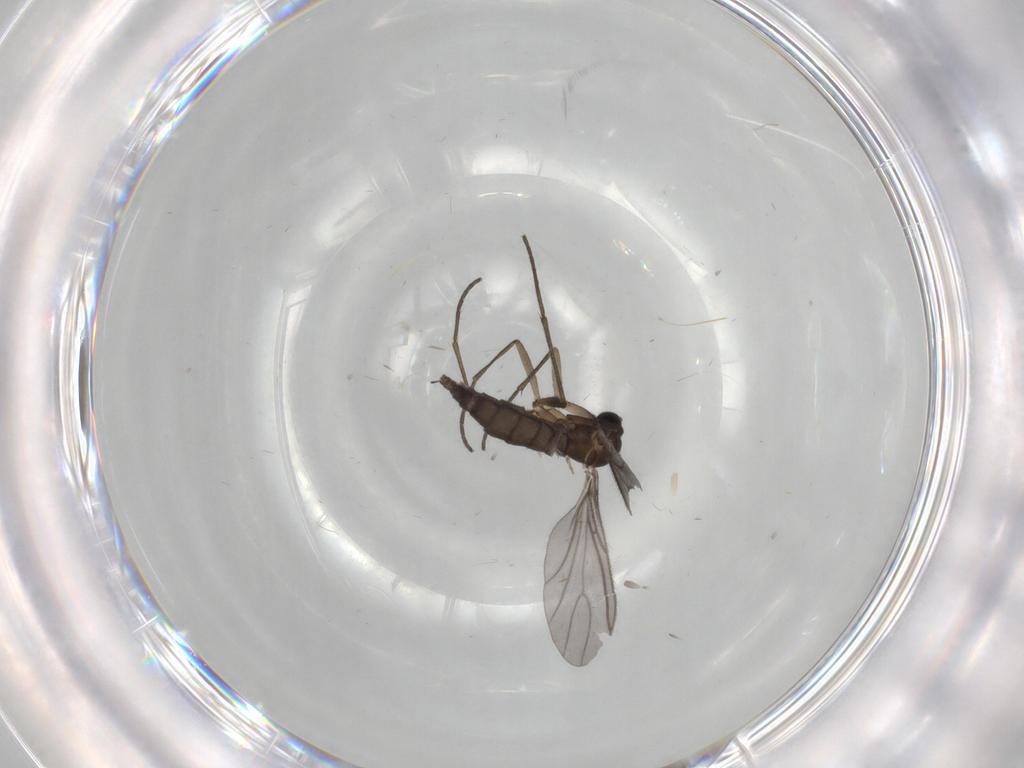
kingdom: Animalia
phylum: Arthropoda
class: Insecta
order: Diptera
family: Sciaridae
